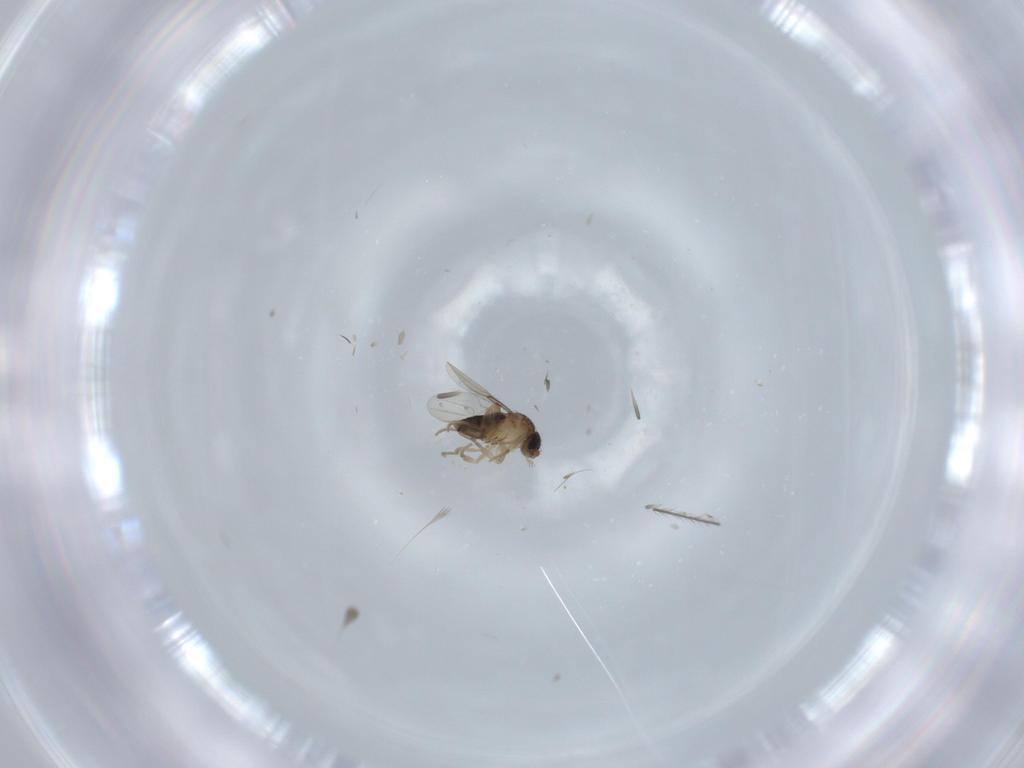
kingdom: Animalia
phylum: Arthropoda
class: Insecta
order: Diptera
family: Phoridae
